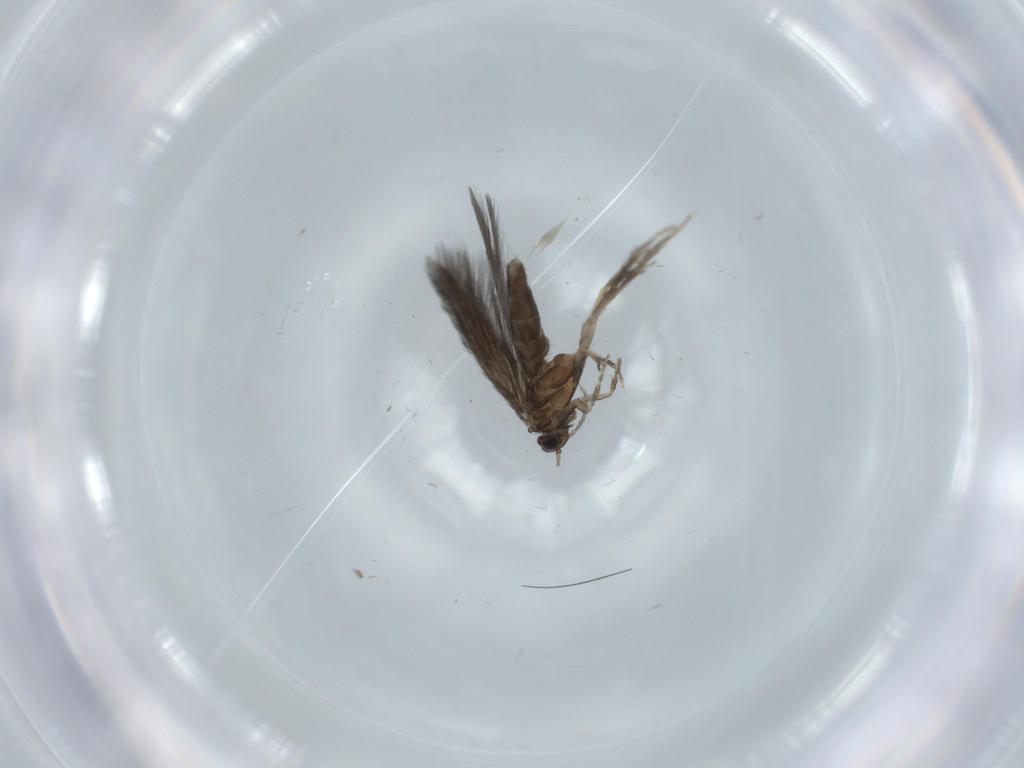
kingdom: Animalia
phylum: Arthropoda
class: Insecta
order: Trichoptera
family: Hydroptilidae
